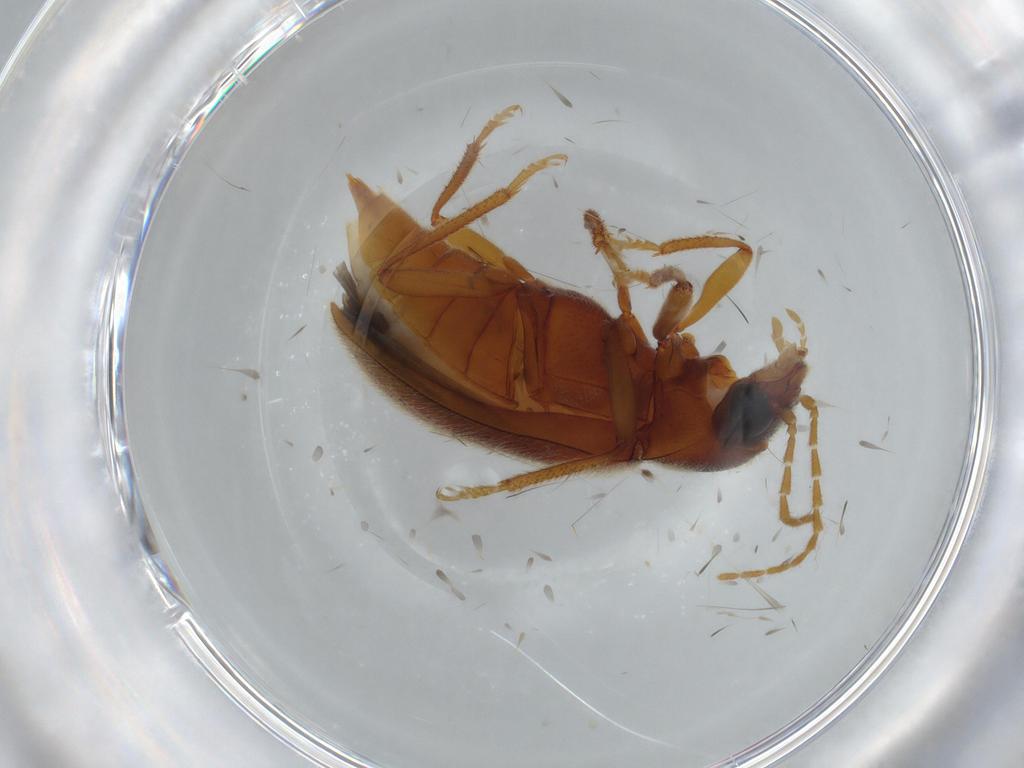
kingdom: Animalia
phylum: Arthropoda
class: Insecta
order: Coleoptera
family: Ptilodactylidae
